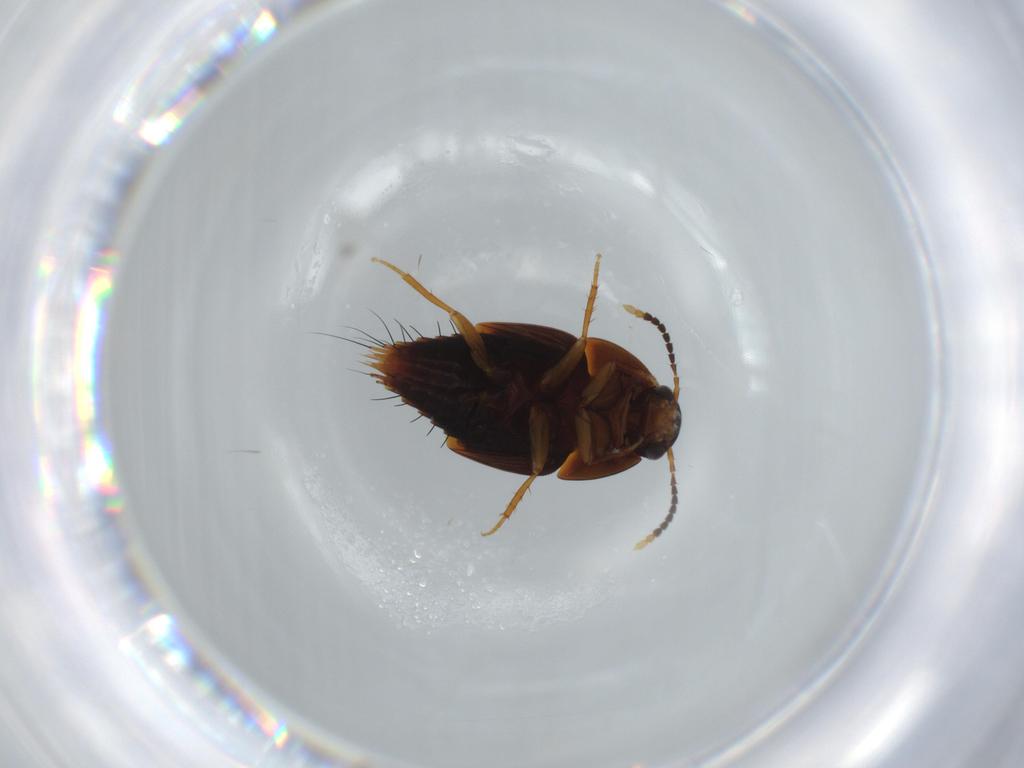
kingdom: Animalia
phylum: Arthropoda
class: Insecta
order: Coleoptera
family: Staphylinidae
